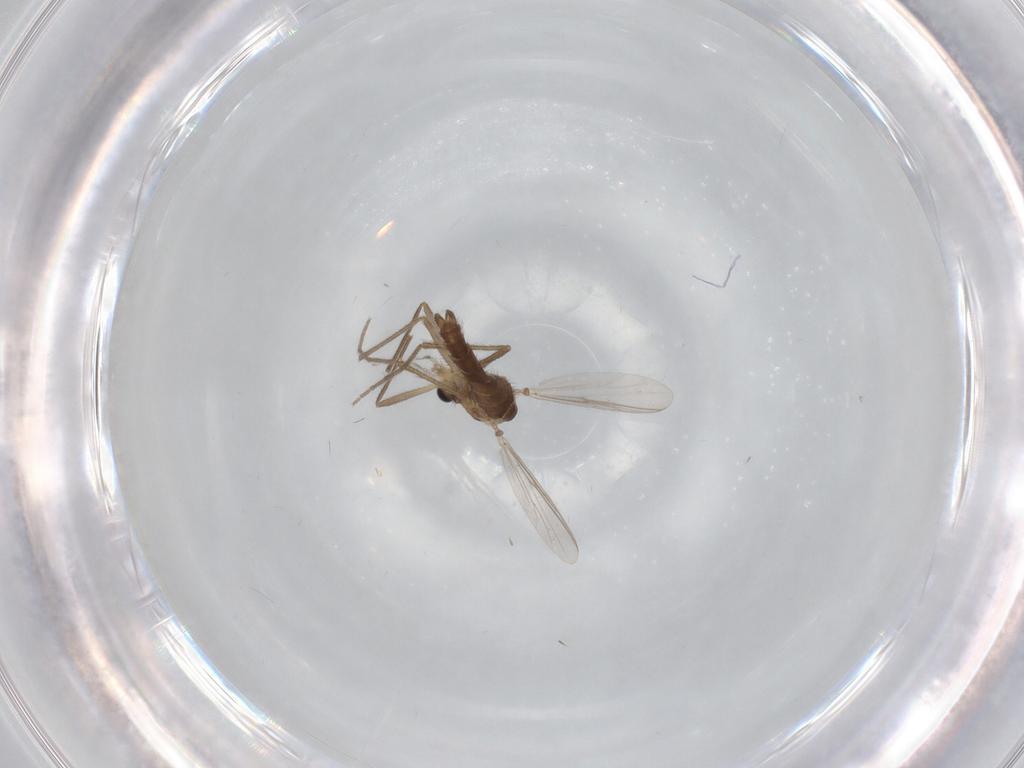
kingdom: Animalia
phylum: Arthropoda
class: Insecta
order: Diptera
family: Chironomidae
